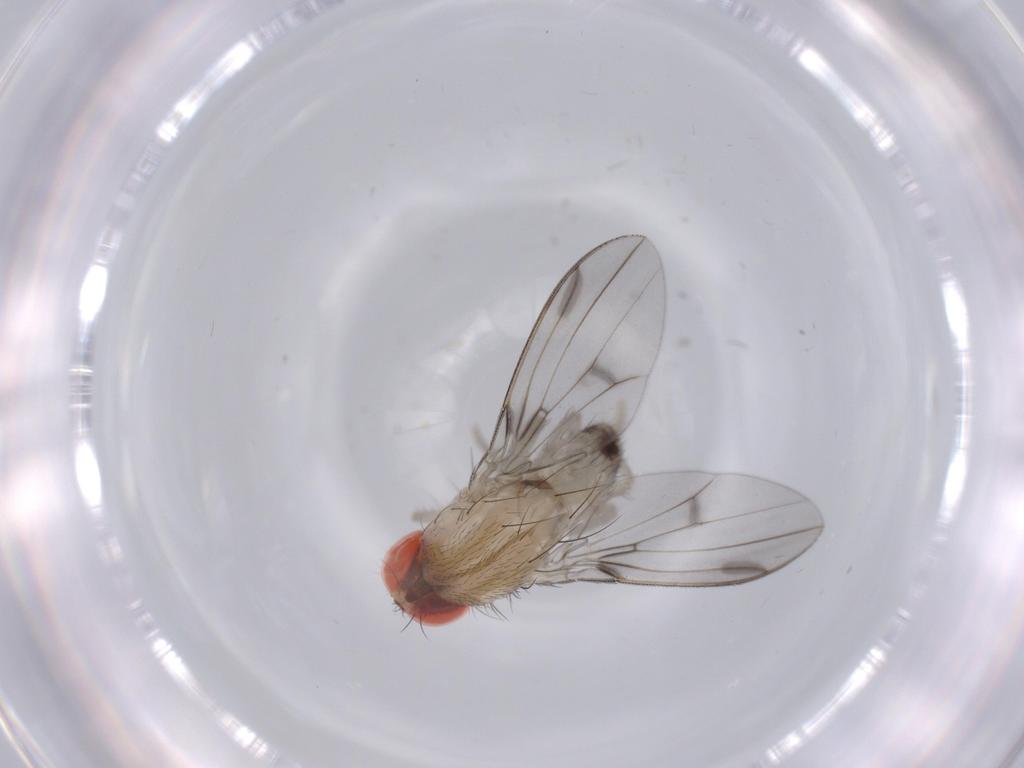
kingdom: Animalia
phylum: Arthropoda
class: Insecta
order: Diptera
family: Drosophilidae
